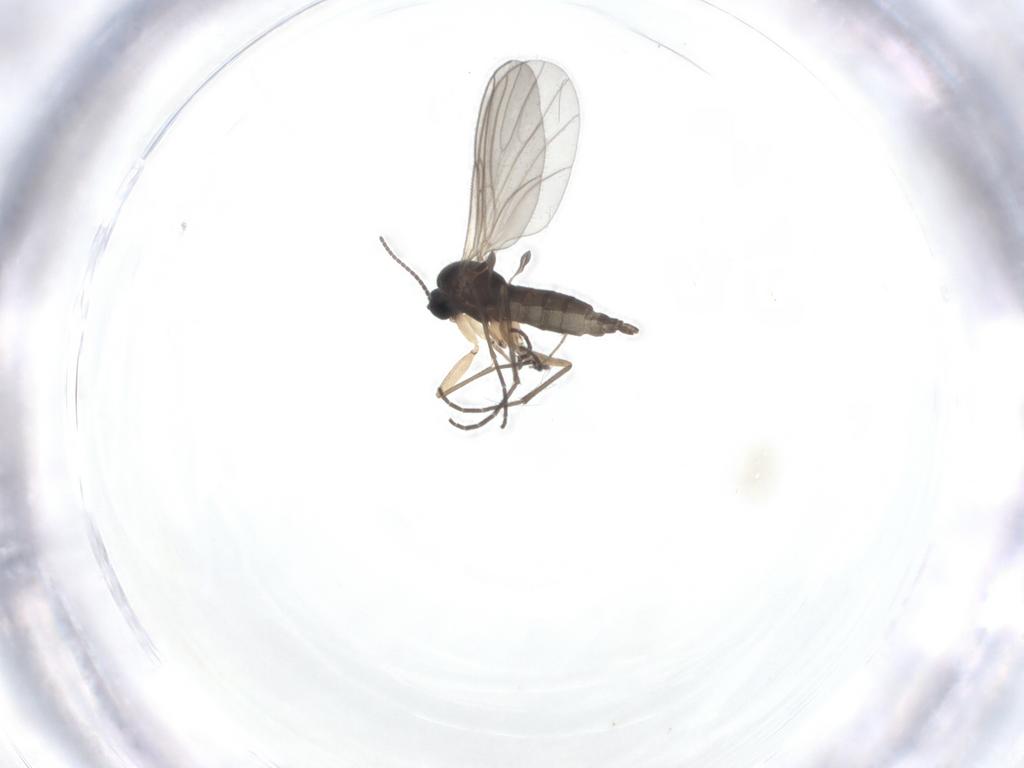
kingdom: Animalia
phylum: Arthropoda
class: Insecta
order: Diptera
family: Sciaridae
